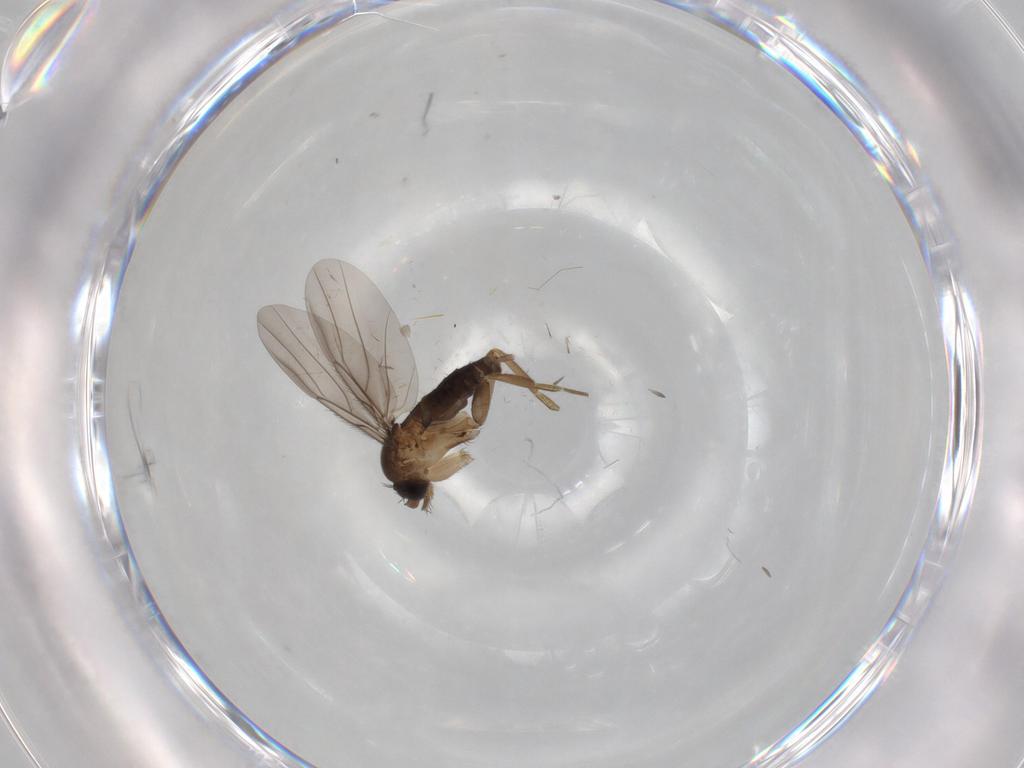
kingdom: Animalia
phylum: Arthropoda
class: Insecta
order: Diptera
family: Phoridae
